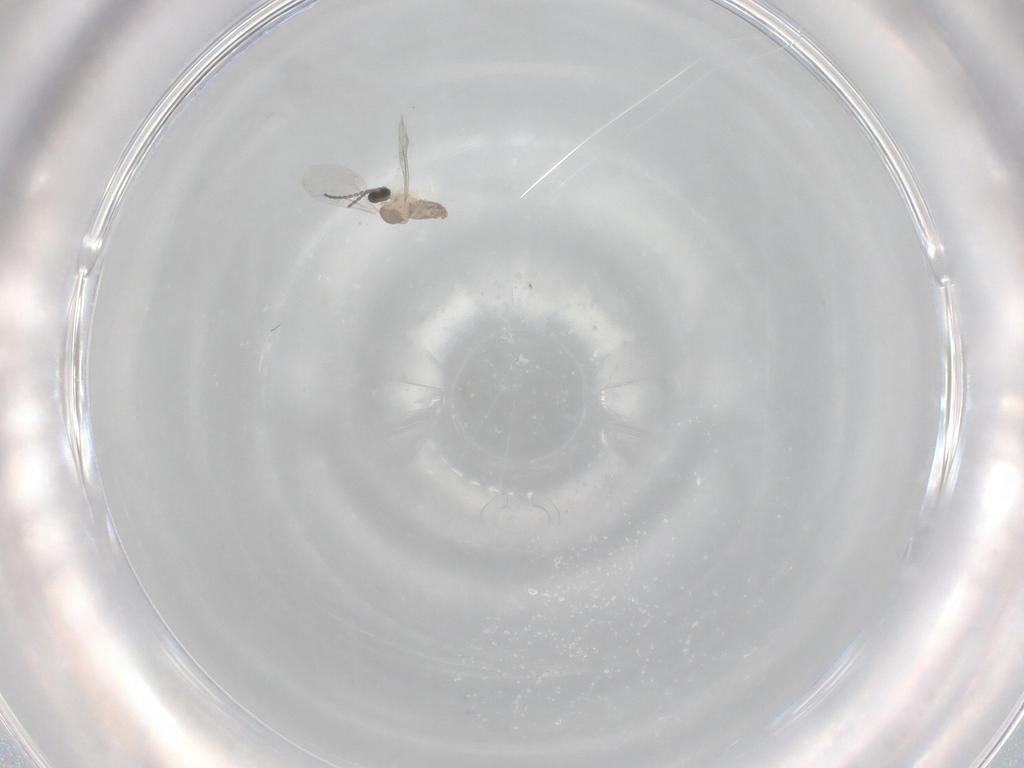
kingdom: Animalia
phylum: Arthropoda
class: Insecta
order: Diptera
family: Cecidomyiidae
